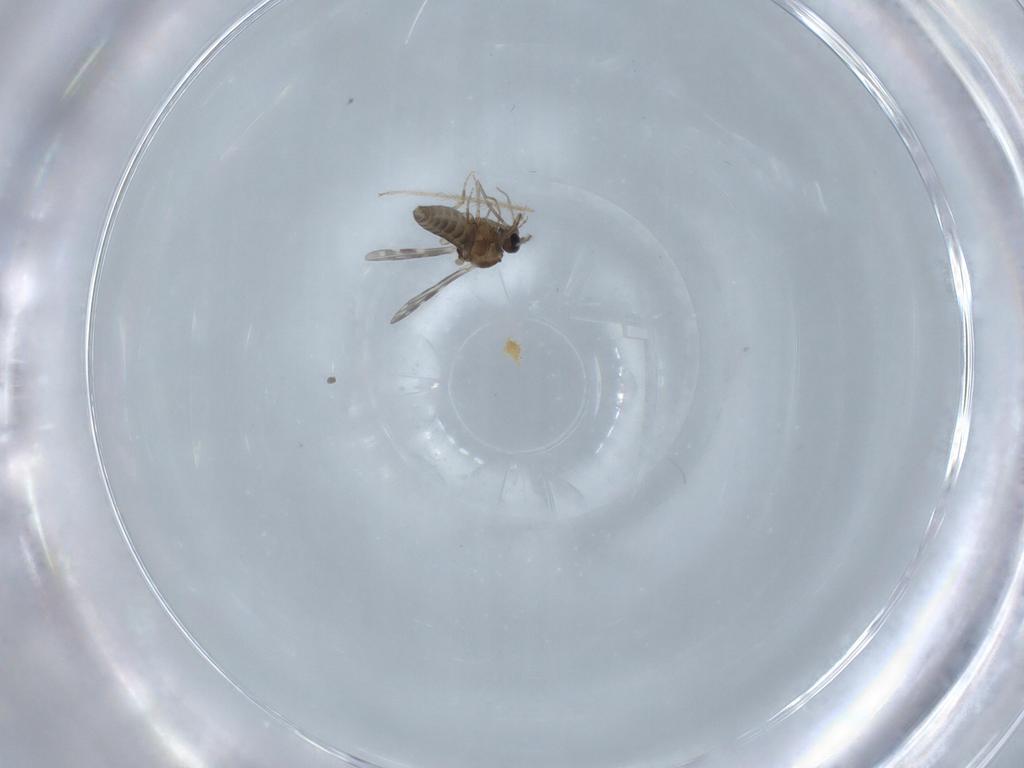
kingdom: Animalia
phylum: Arthropoda
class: Insecta
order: Diptera
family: Ceratopogonidae
